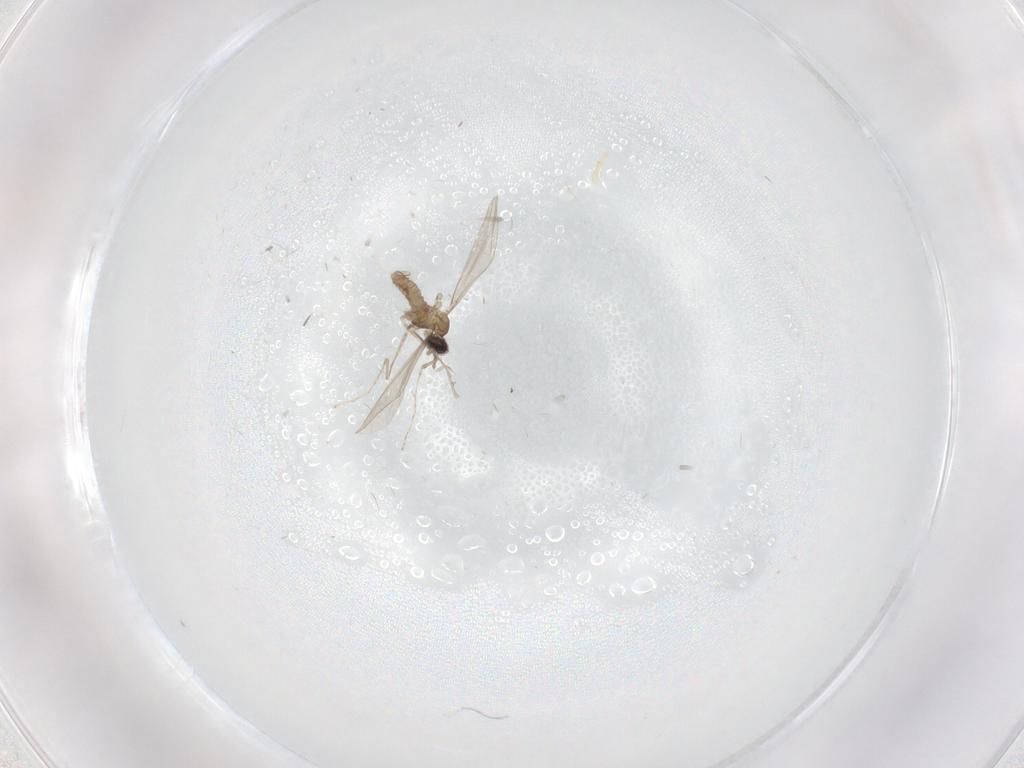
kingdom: Animalia
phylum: Arthropoda
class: Insecta
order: Diptera
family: Cecidomyiidae
